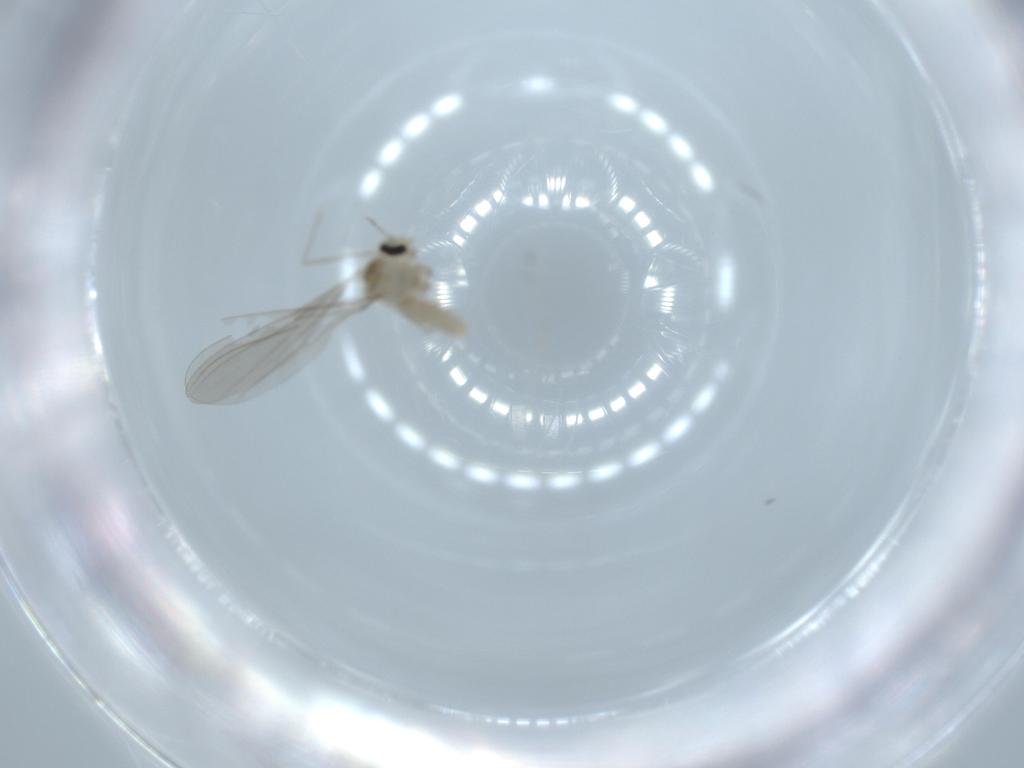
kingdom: Animalia
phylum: Arthropoda
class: Insecta
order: Diptera
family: Cecidomyiidae
